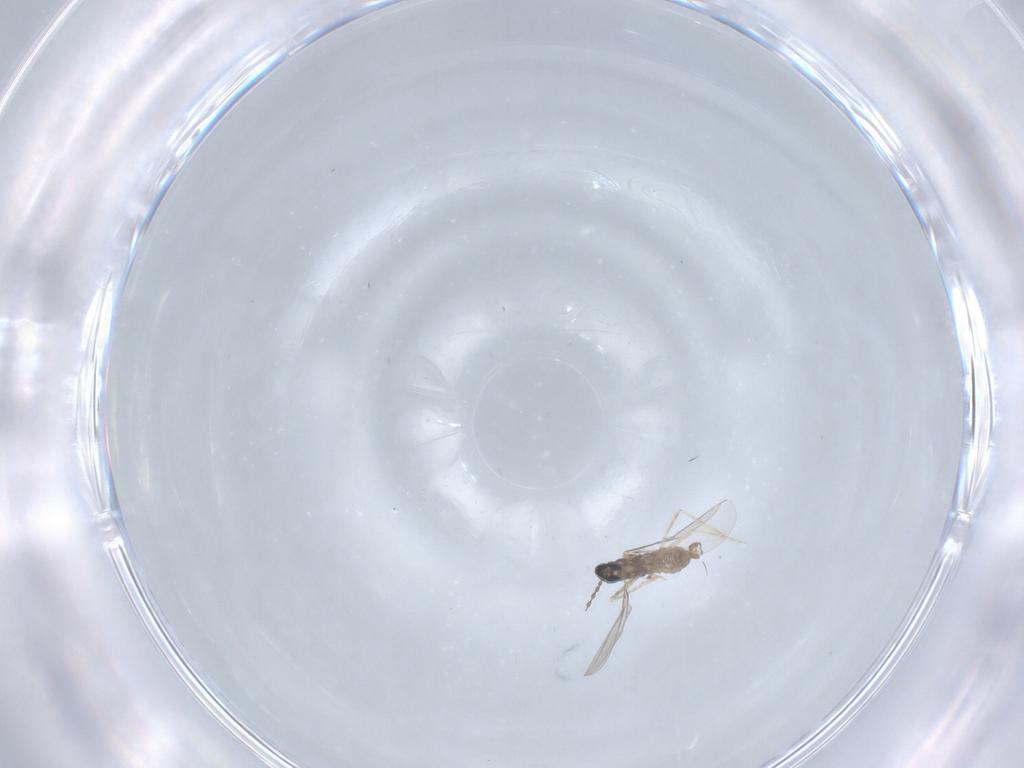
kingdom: Animalia
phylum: Arthropoda
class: Insecta
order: Diptera
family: Cecidomyiidae
